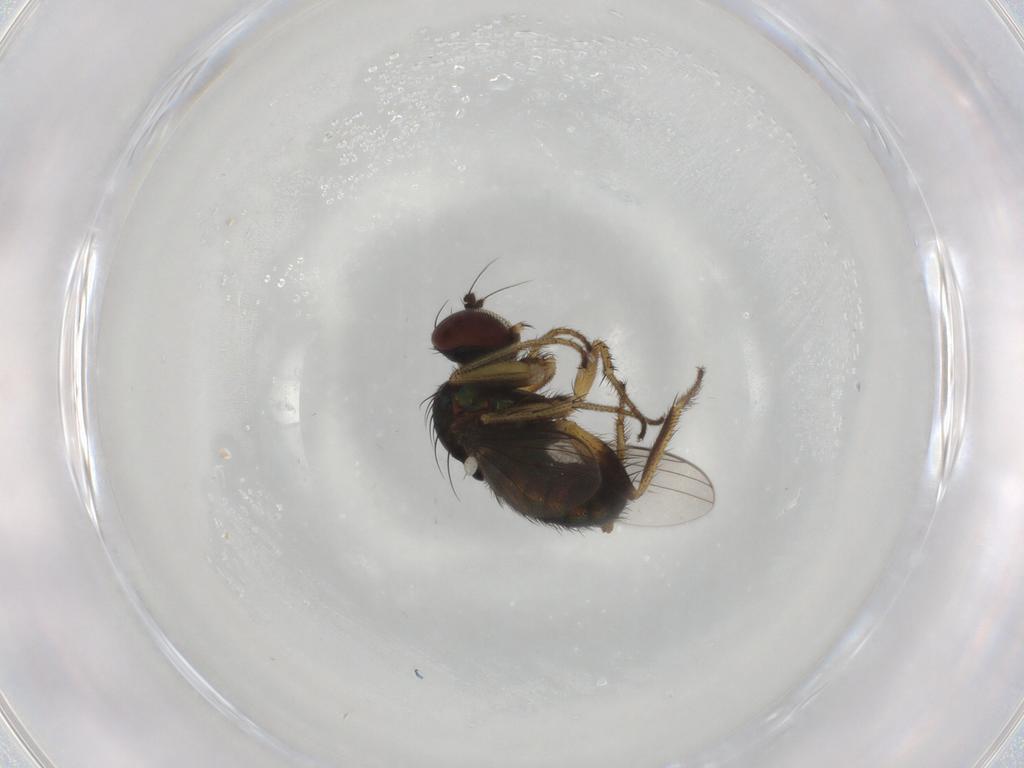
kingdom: Animalia
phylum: Arthropoda
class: Insecta
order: Diptera
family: Dolichopodidae
